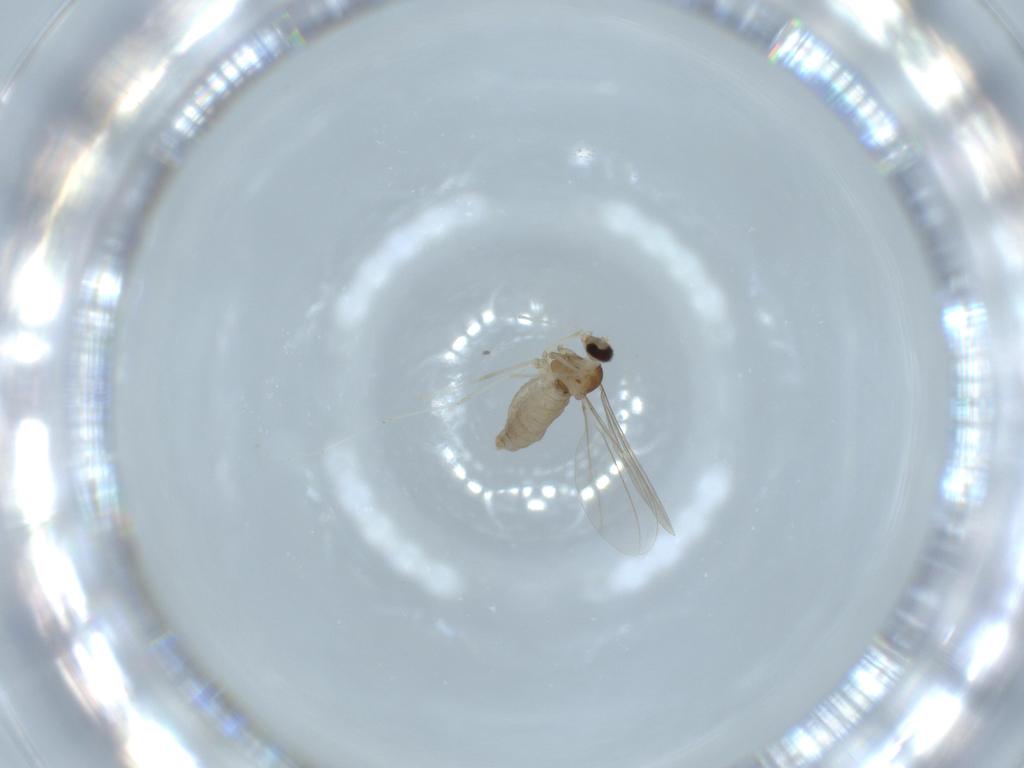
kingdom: Animalia
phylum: Arthropoda
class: Insecta
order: Diptera
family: Cecidomyiidae
